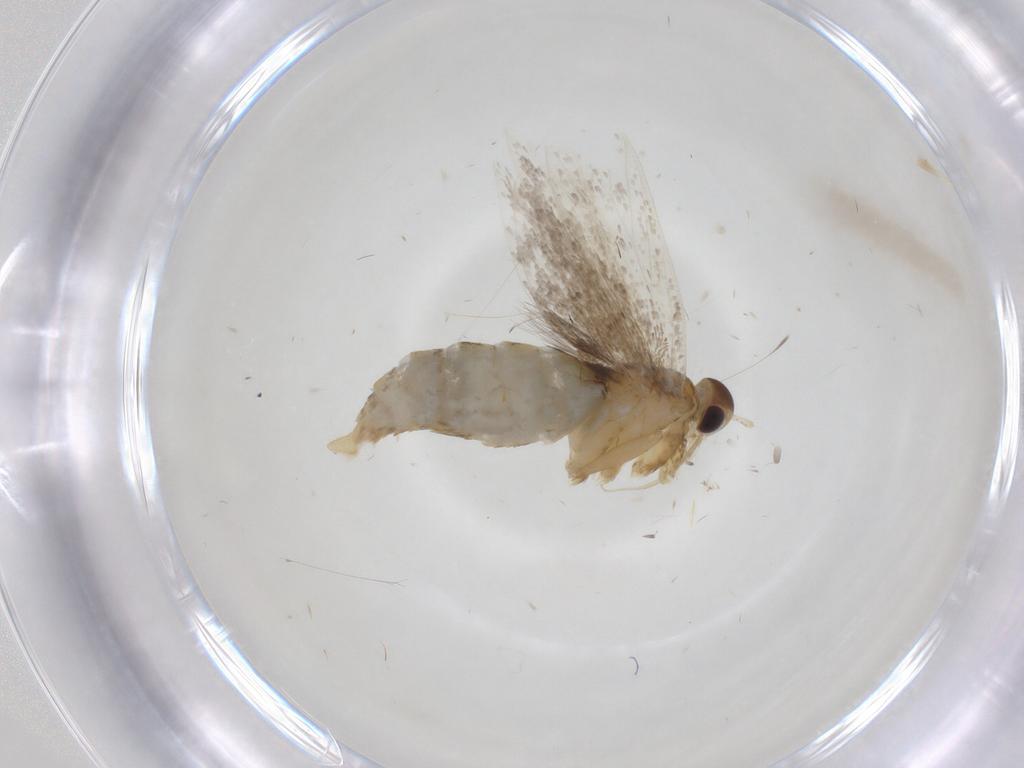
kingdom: Animalia
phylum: Arthropoda
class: Insecta
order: Lepidoptera
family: Oecophoridae
